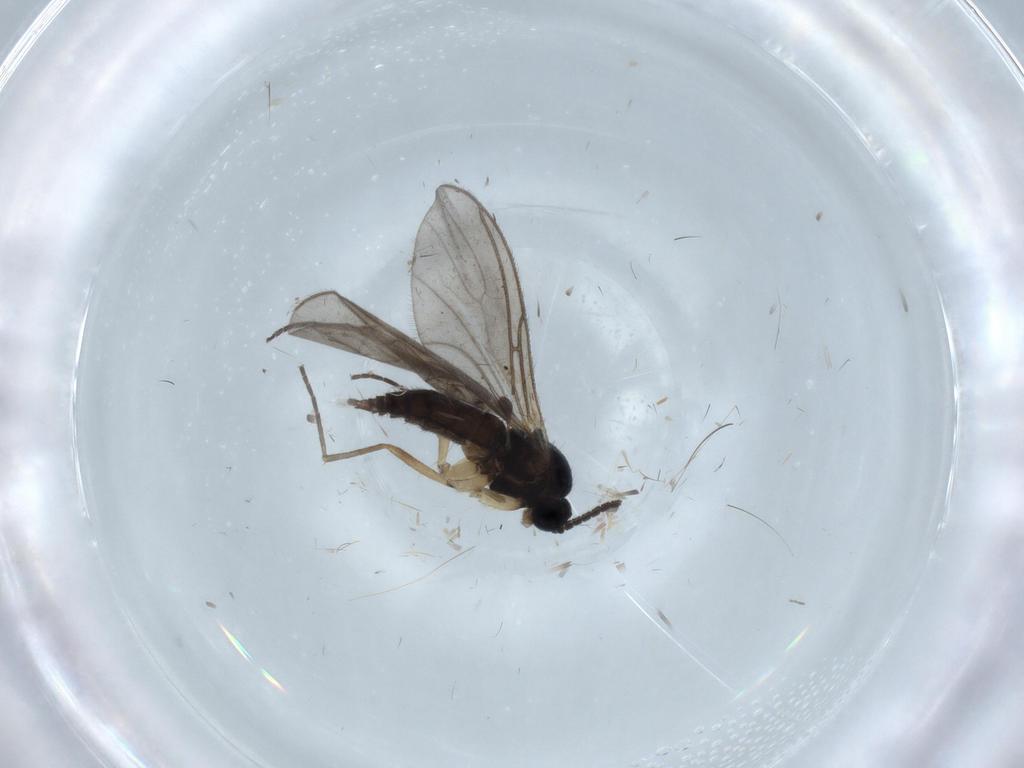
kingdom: Animalia
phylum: Arthropoda
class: Insecta
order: Diptera
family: Sciaridae
